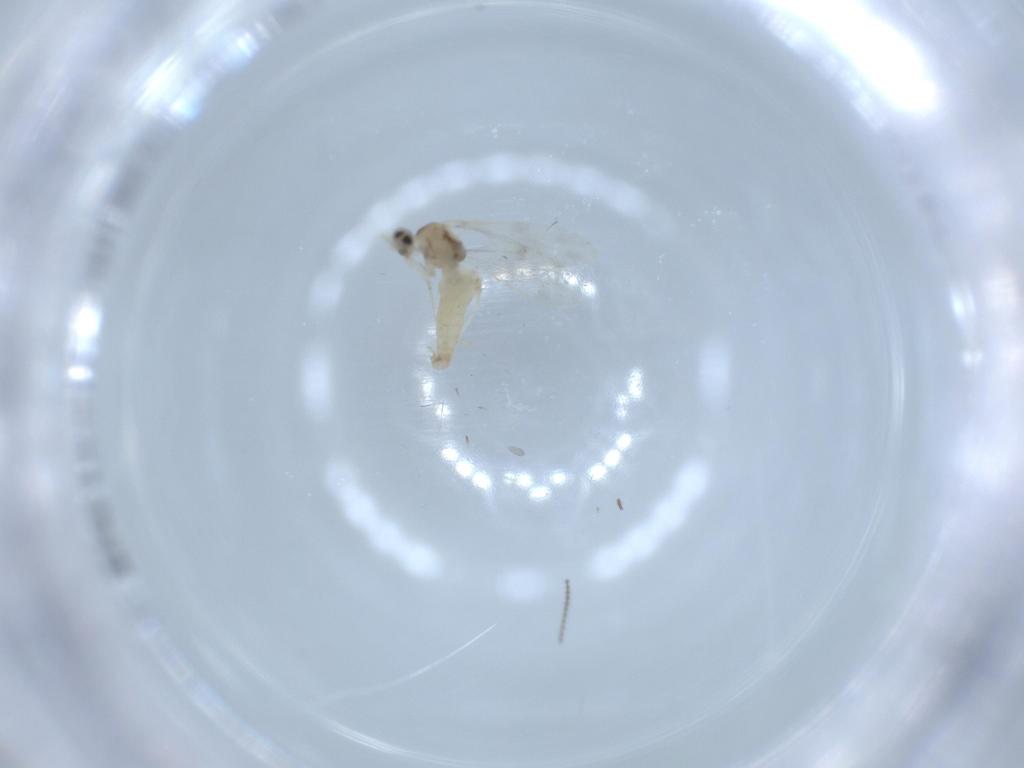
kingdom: Animalia
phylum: Arthropoda
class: Insecta
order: Diptera
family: Cecidomyiidae
